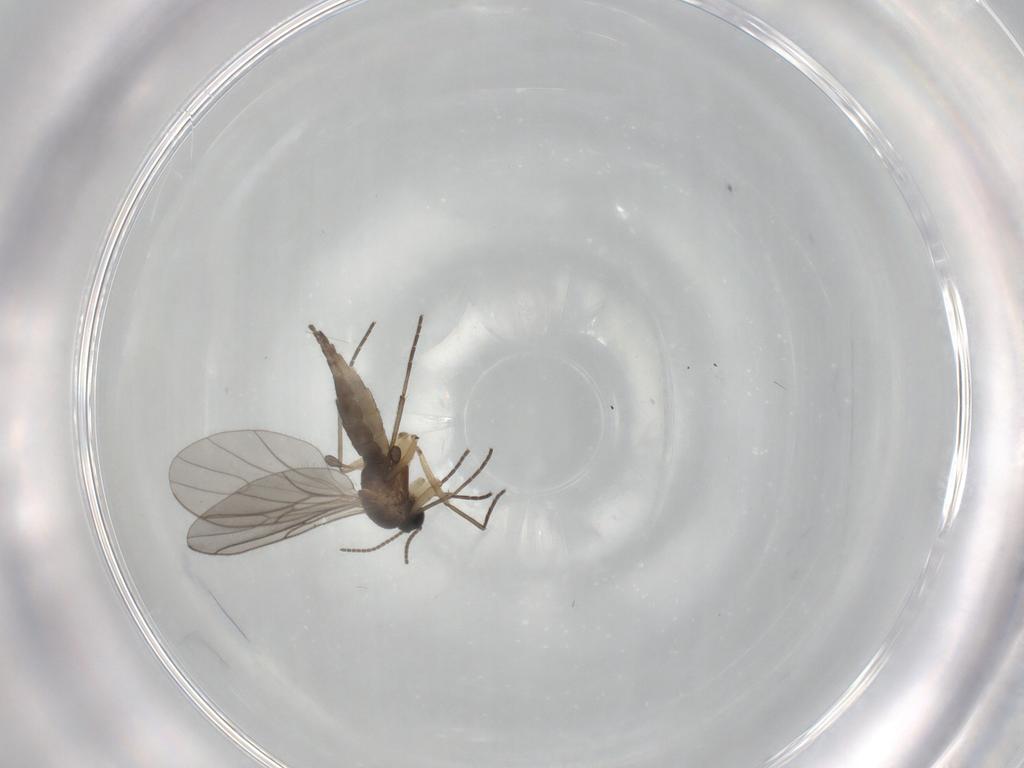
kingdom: Animalia
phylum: Arthropoda
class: Insecta
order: Diptera
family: Sciaridae
